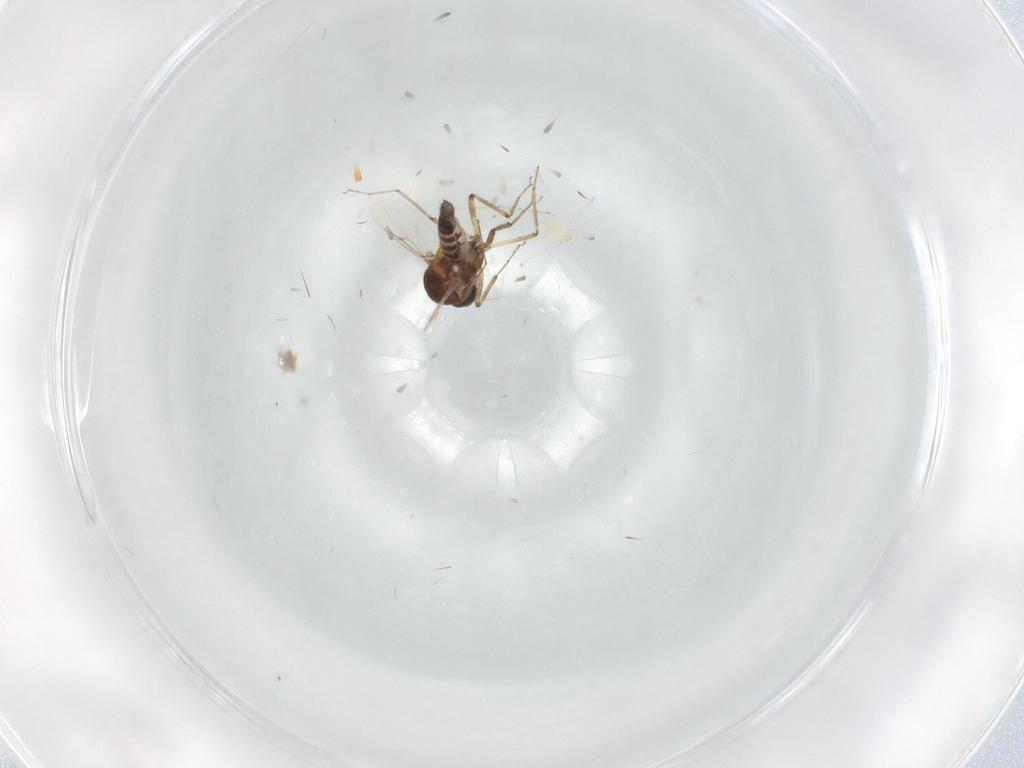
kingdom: Animalia
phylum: Arthropoda
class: Insecta
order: Diptera
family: Ceratopogonidae
